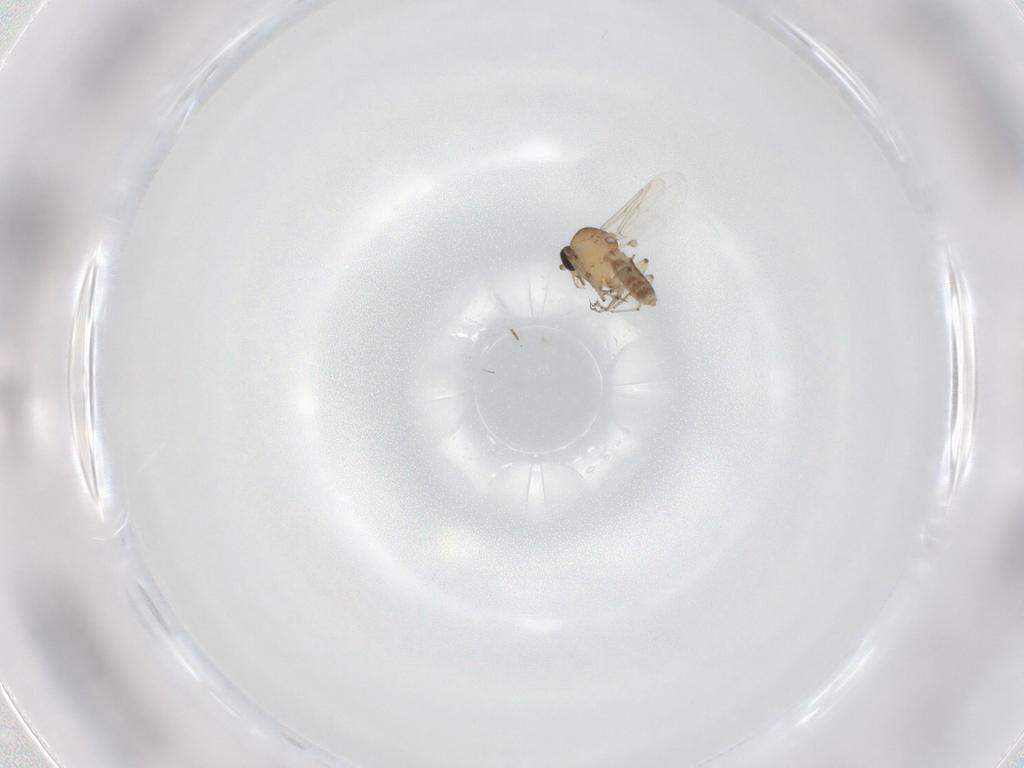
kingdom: Animalia
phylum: Arthropoda
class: Insecta
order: Diptera
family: Ceratopogonidae
